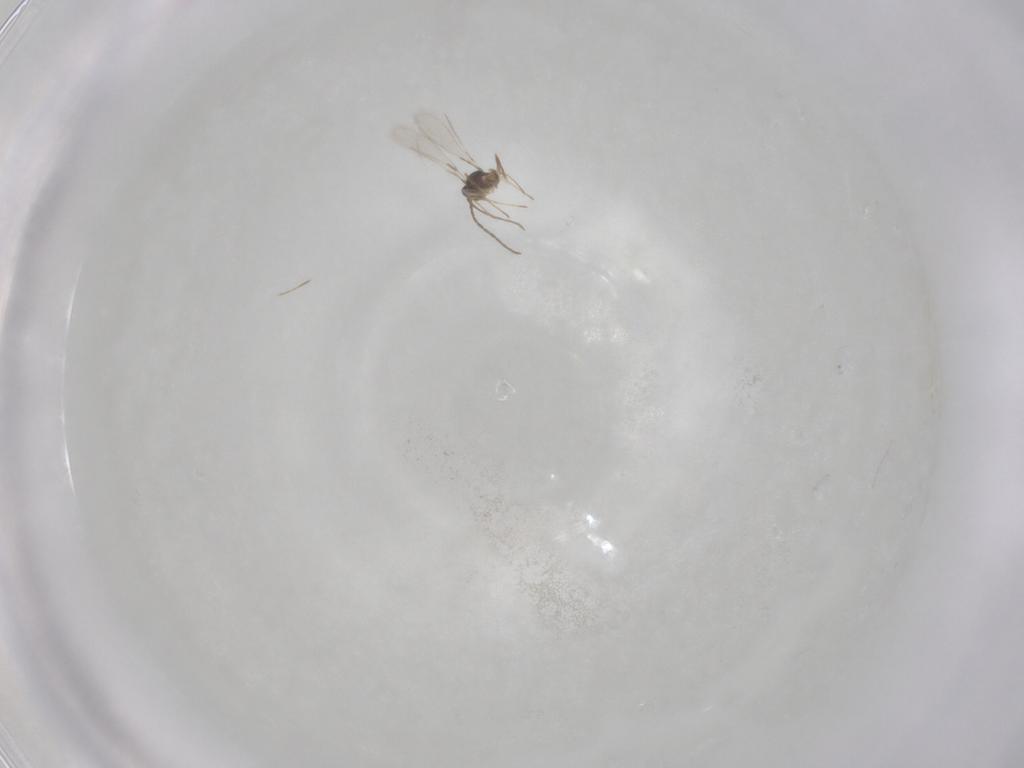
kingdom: Animalia
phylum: Arthropoda
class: Insecta
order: Hymenoptera
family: Mymaridae
